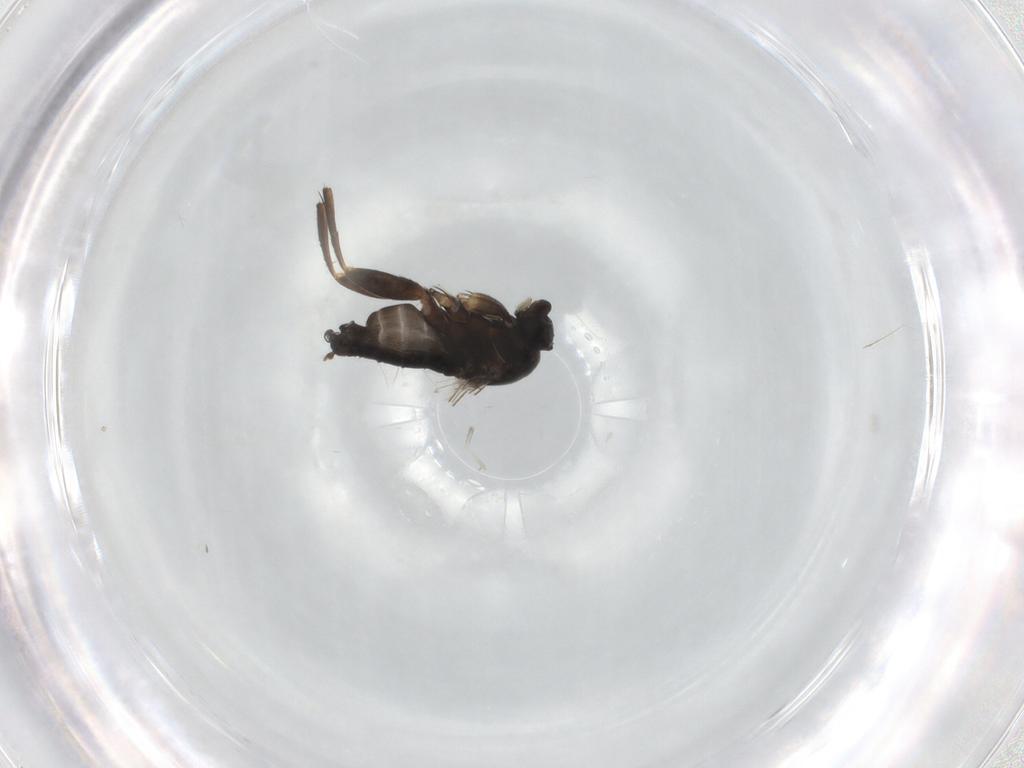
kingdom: Animalia
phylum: Arthropoda
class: Insecta
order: Diptera
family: Phoridae
